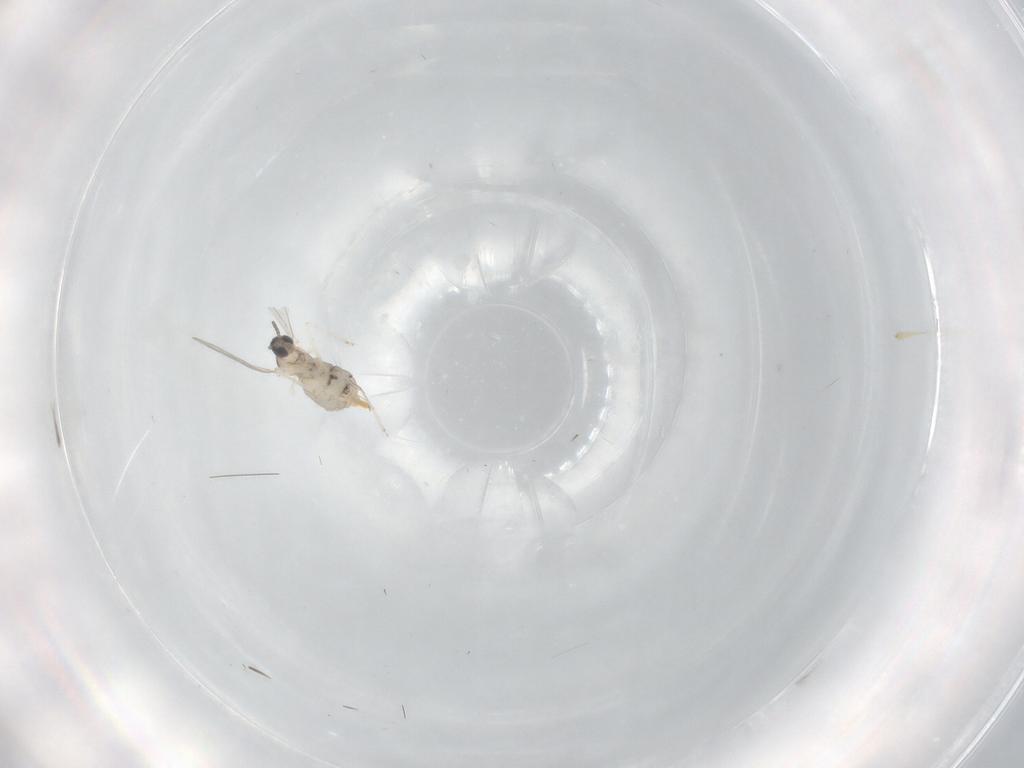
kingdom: Animalia
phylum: Arthropoda
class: Insecta
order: Diptera
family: Cecidomyiidae
